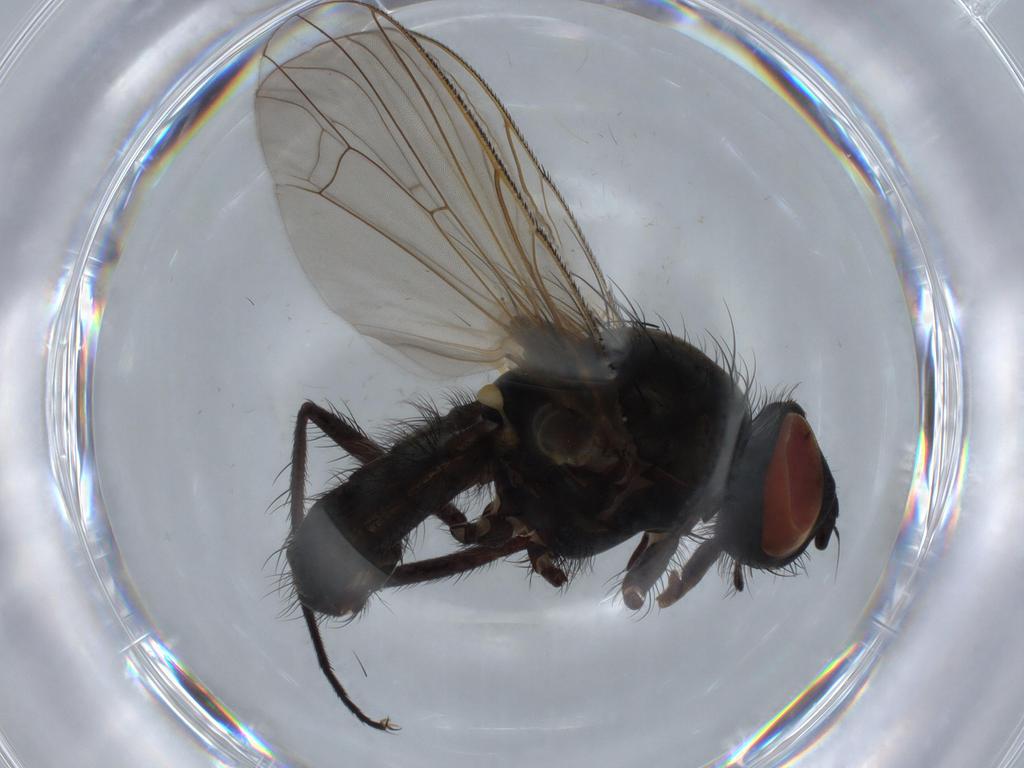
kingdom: Animalia
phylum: Arthropoda
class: Insecta
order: Diptera
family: Anthomyiidae
